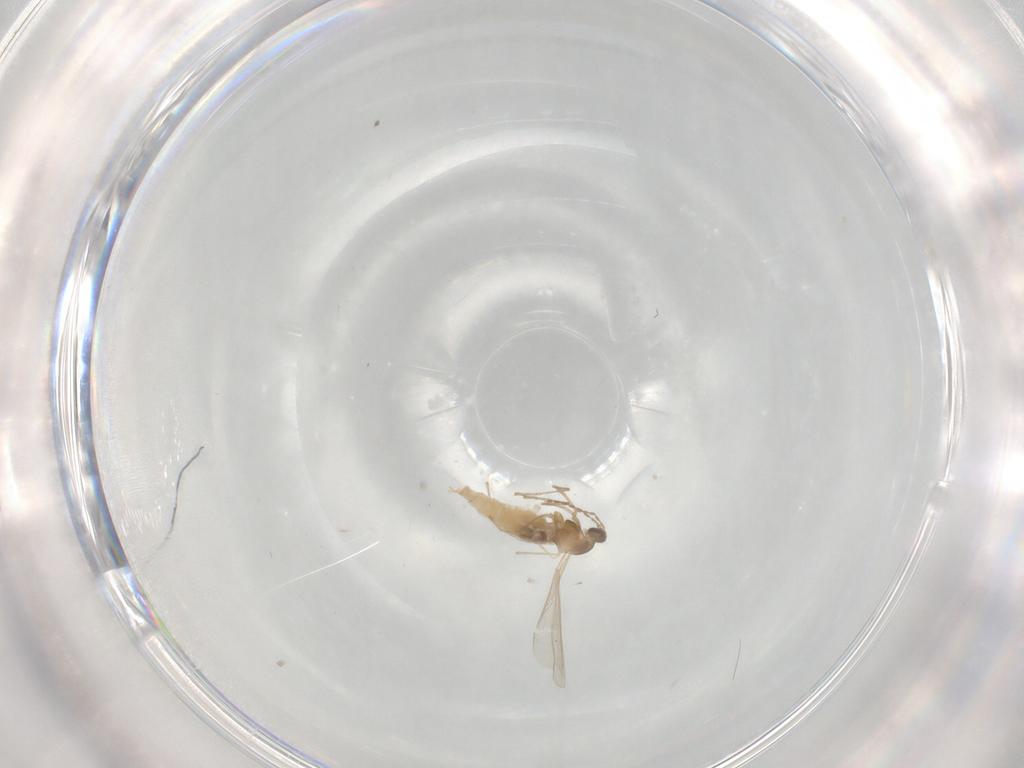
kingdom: Animalia
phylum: Arthropoda
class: Insecta
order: Diptera
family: Cecidomyiidae
